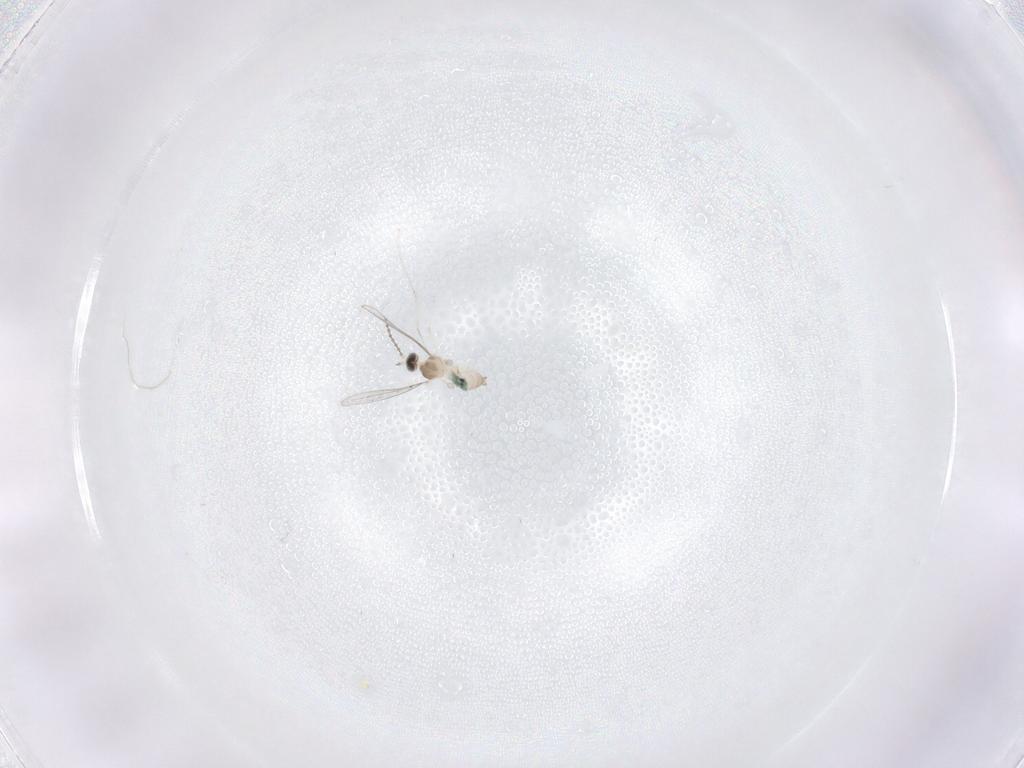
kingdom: Animalia
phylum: Arthropoda
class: Insecta
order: Diptera
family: Cecidomyiidae
